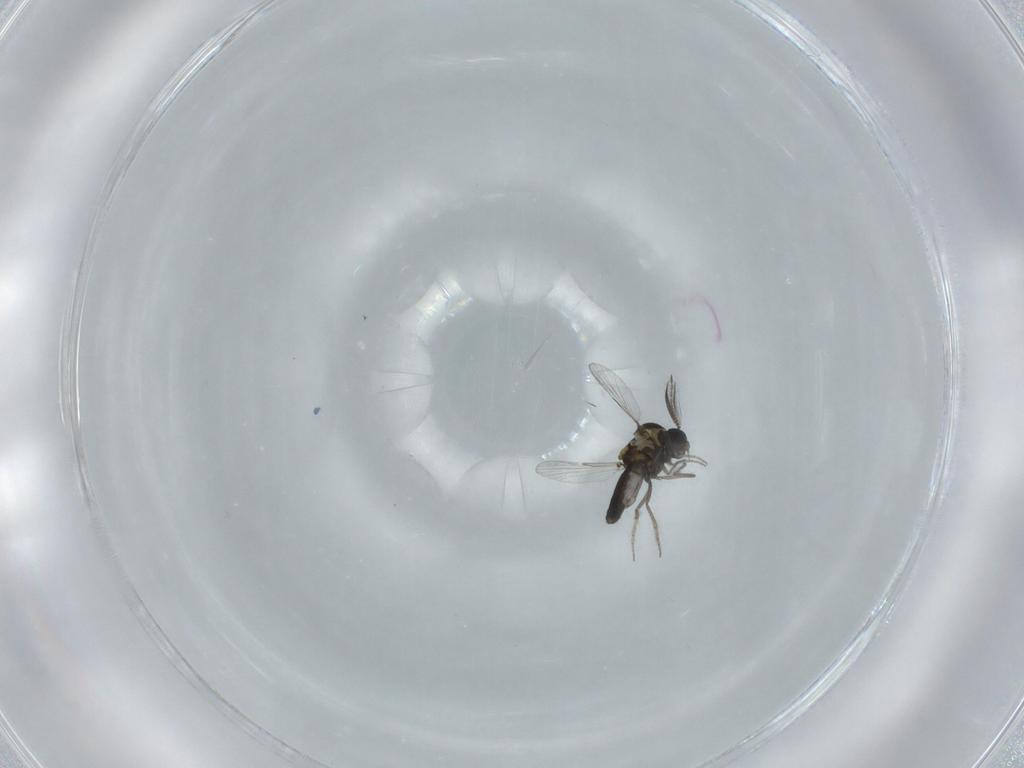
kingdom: Animalia
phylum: Arthropoda
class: Insecta
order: Diptera
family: Ceratopogonidae
